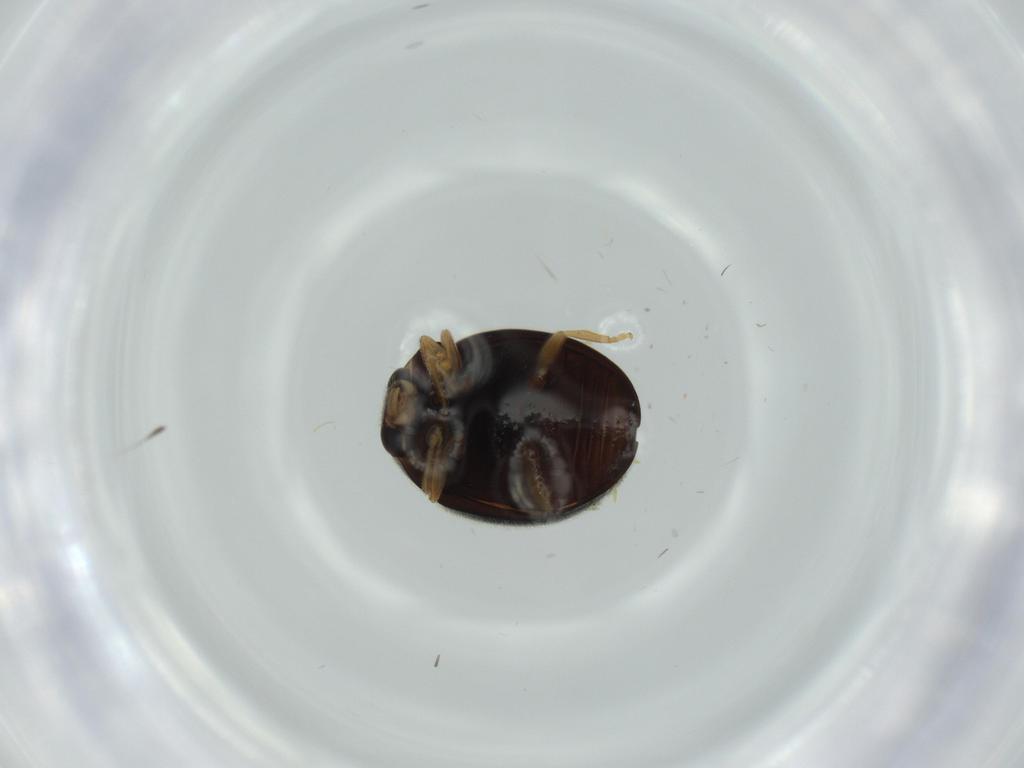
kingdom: Animalia
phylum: Arthropoda
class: Insecta
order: Coleoptera
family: Coccinellidae
